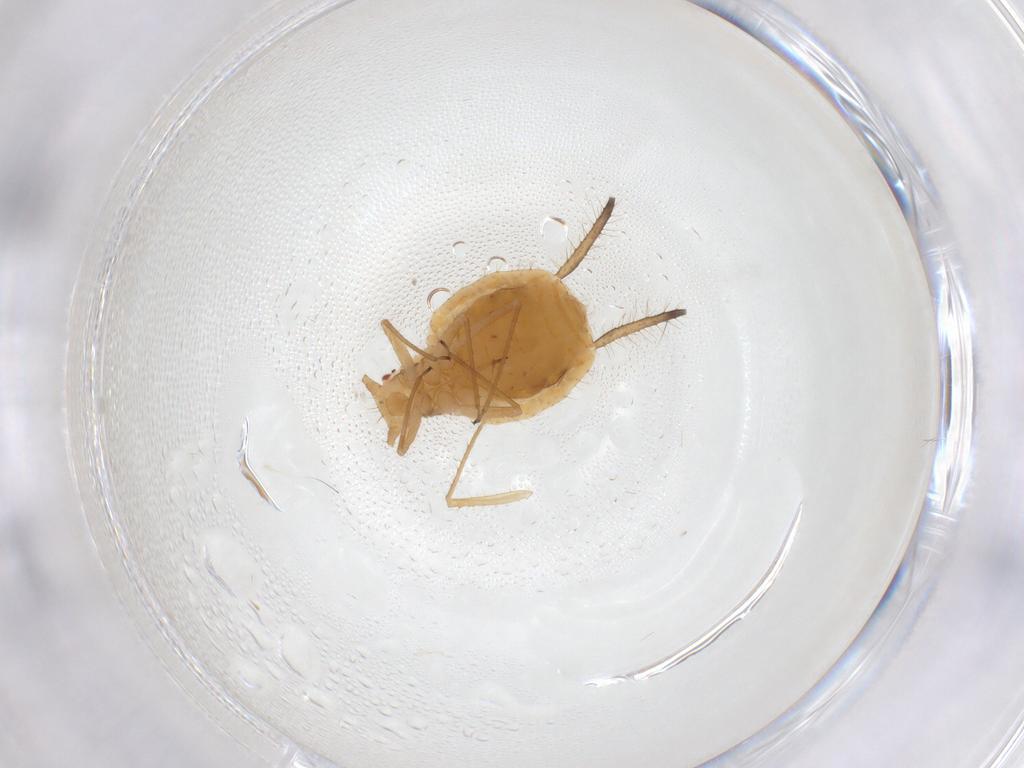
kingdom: Animalia
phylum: Arthropoda
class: Insecta
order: Hemiptera
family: Aphididae
